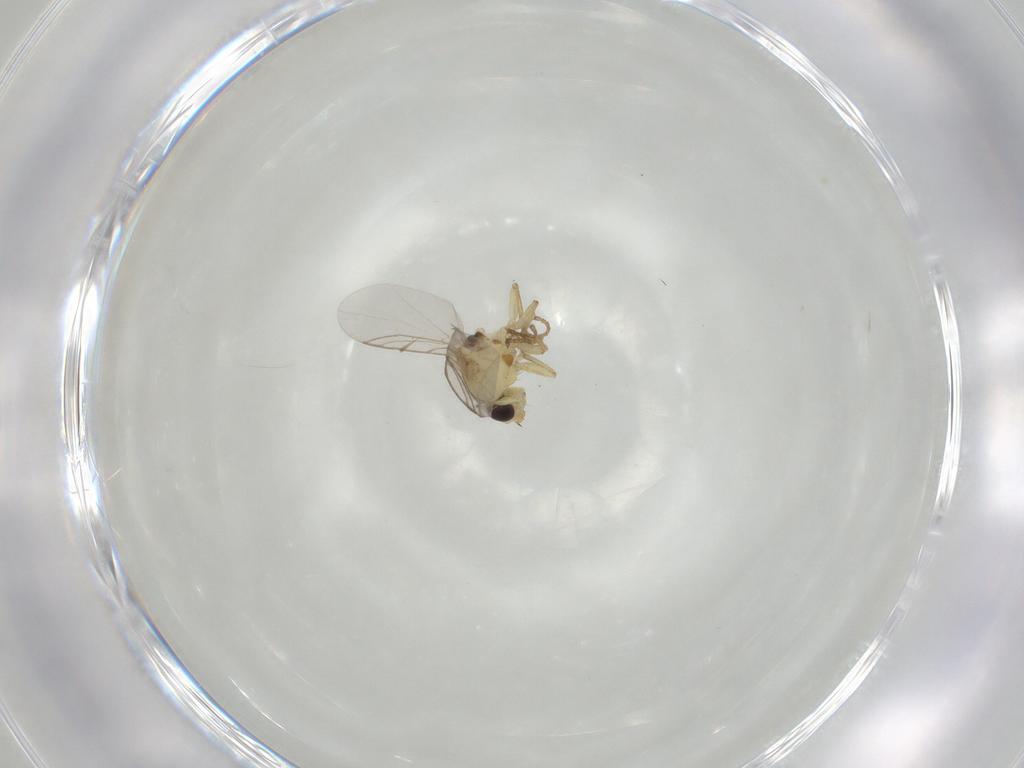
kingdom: Animalia
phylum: Arthropoda
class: Insecta
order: Diptera
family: Agromyzidae
